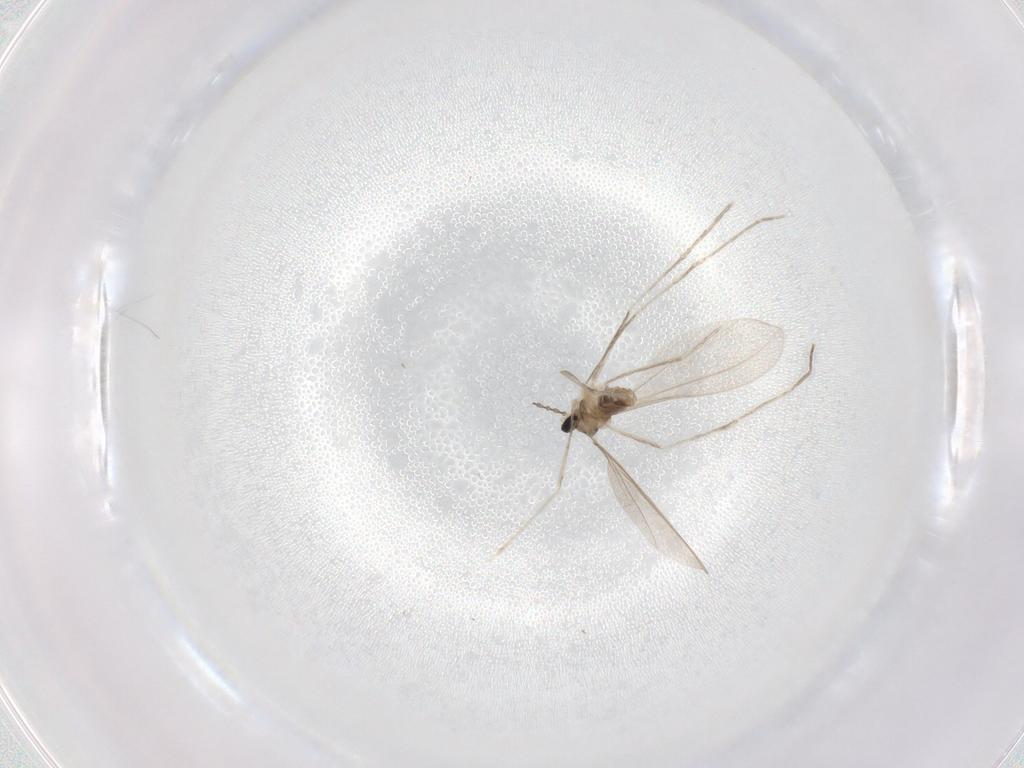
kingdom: Animalia
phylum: Arthropoda
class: Insecta
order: Diptera
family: Cecidomyiidae
